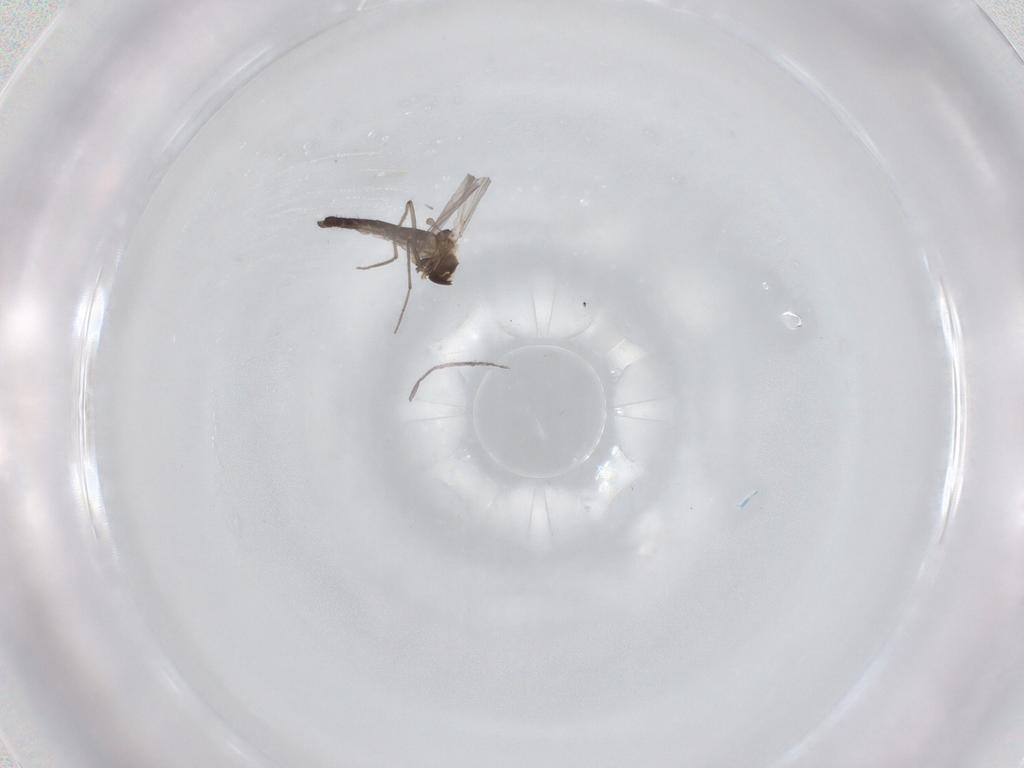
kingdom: Animalia
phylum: Arthropoda
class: Insecta
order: Diptera
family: Chironomidae
